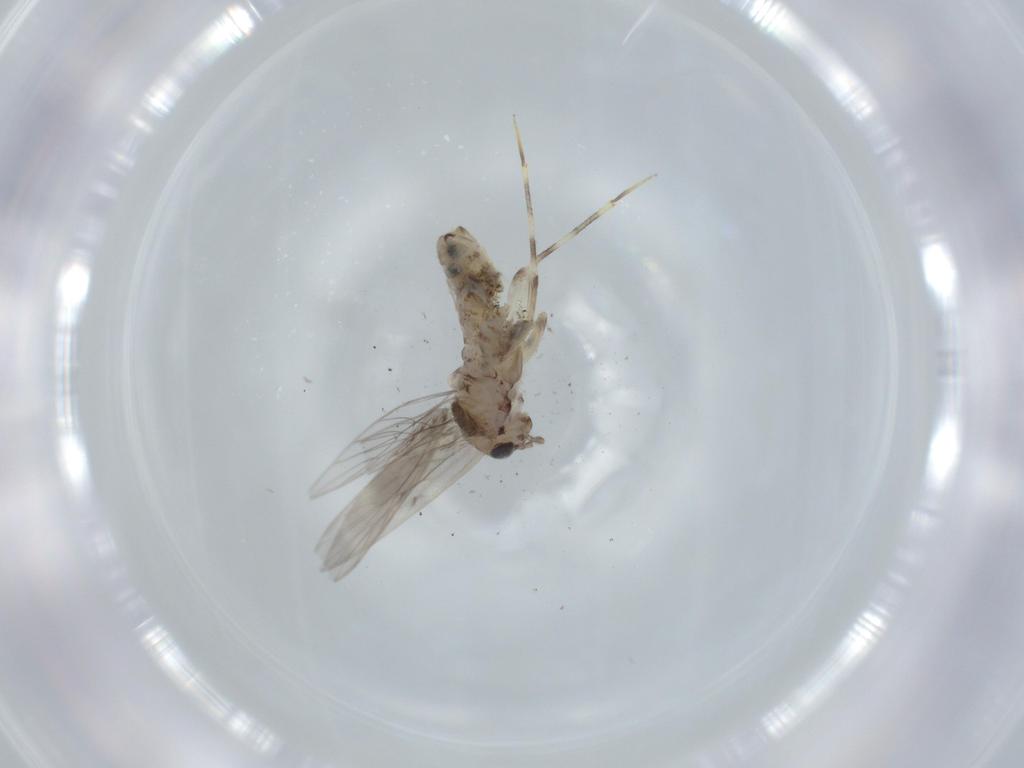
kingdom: Animalia
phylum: Arthropoda
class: Insecta
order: Psocodea
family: Lepidopsocidae
